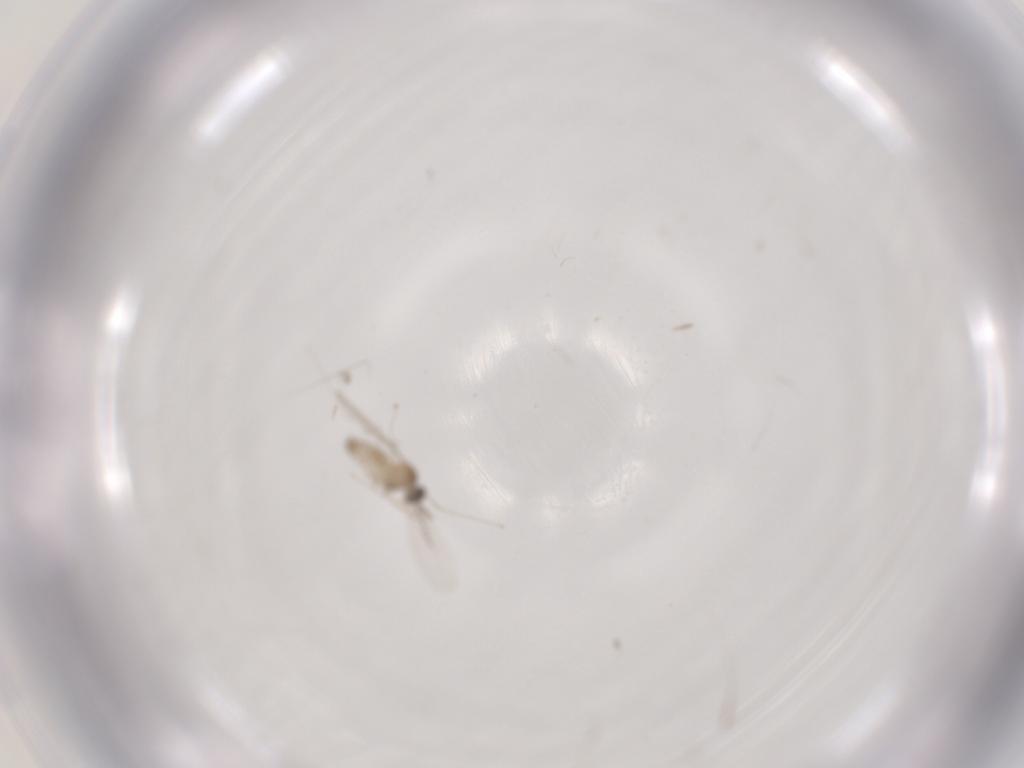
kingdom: Animalia
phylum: Arthropoda
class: Insecta
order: Diptera
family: Cecidomyiidae
